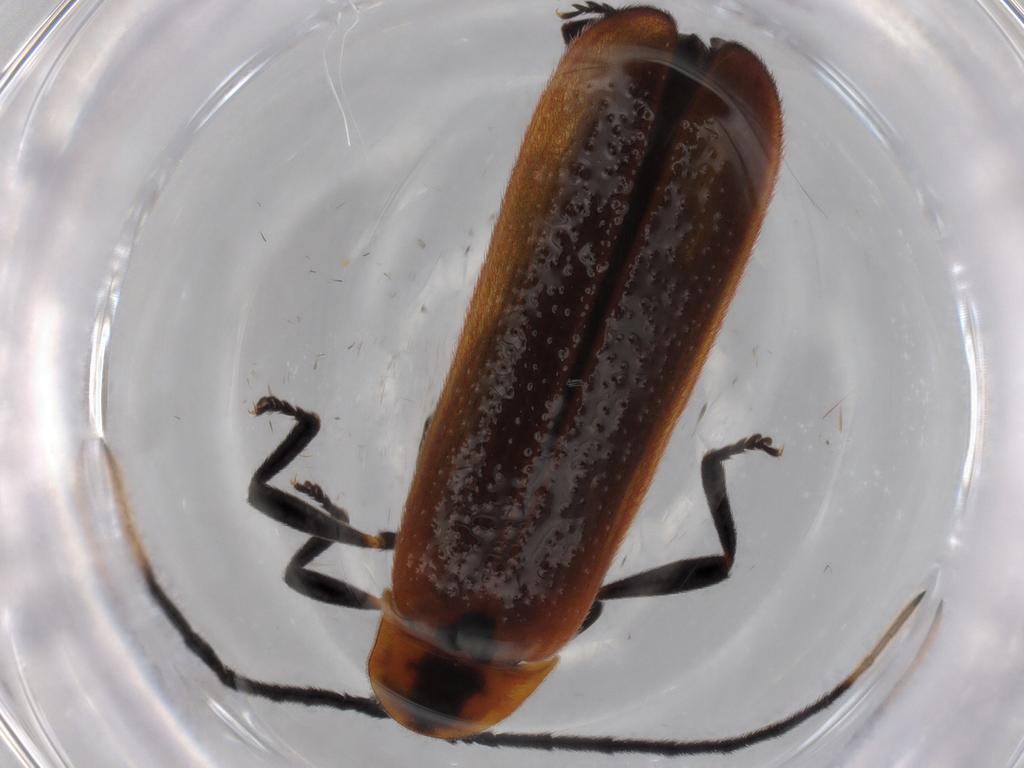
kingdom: Animalia
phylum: Arthropoda
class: Insecta
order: Coleoptera
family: Lycidae
